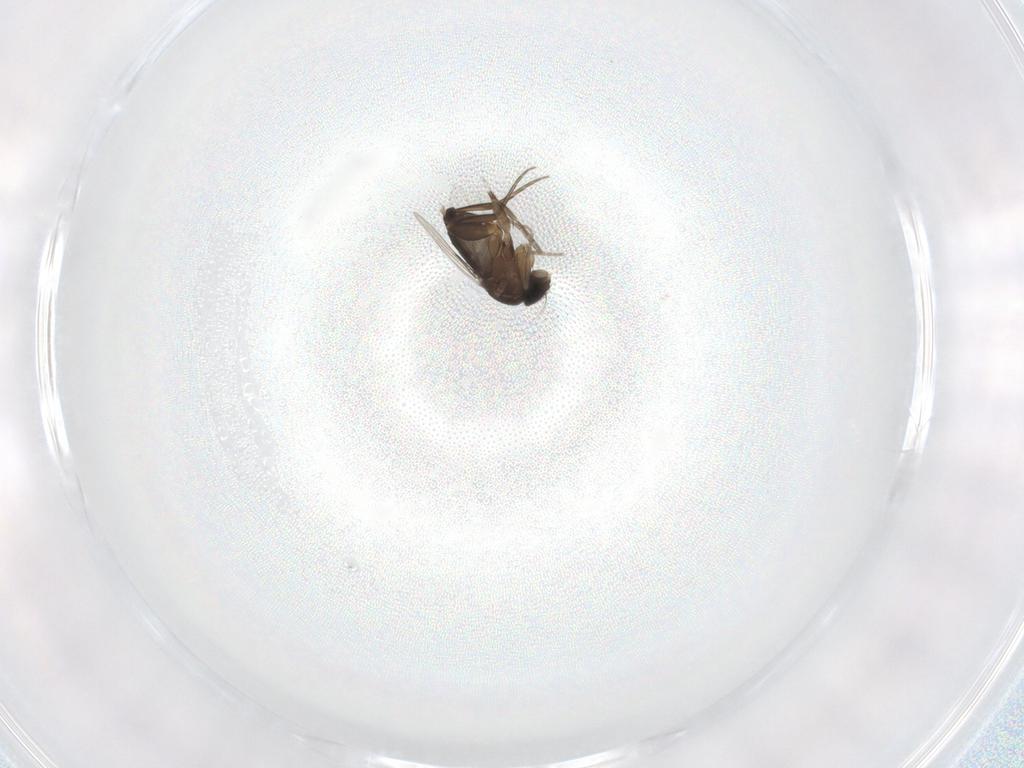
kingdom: Animalia
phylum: Arthropoda
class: Insecta
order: Diptera
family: Phoridae
